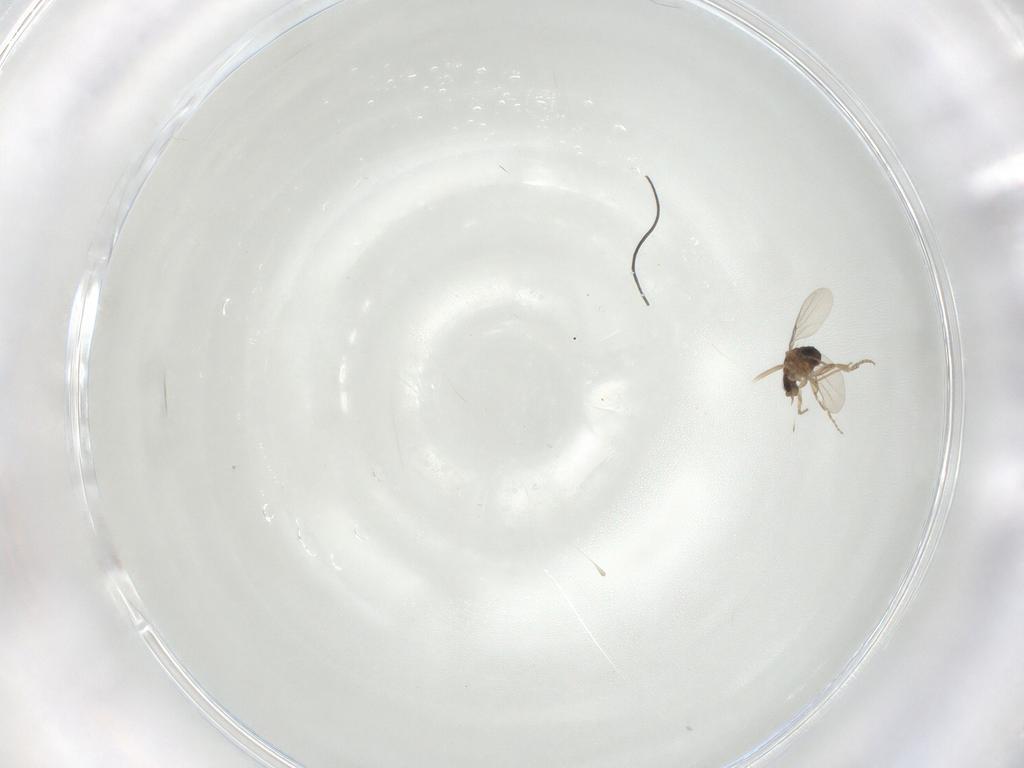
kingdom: Animalia
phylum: Arthropoda
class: Insecta
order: Diptera
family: Chironomidae
